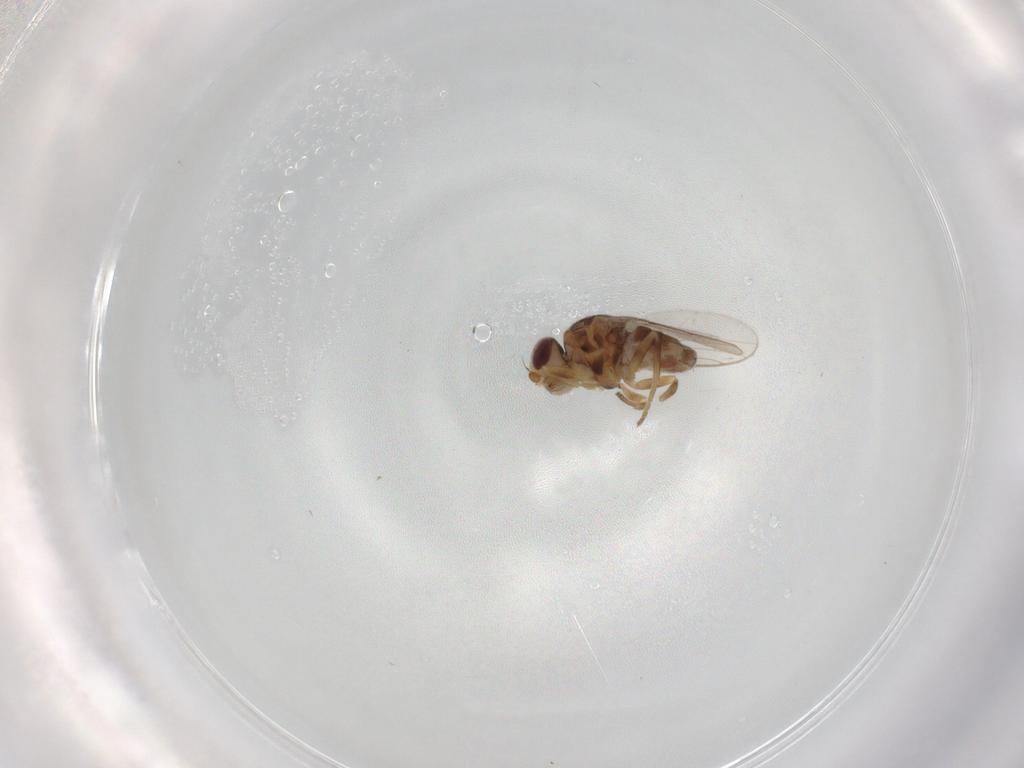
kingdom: Animalia
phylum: Arthropoda
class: Insecta
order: Diptera
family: Chloropidae
